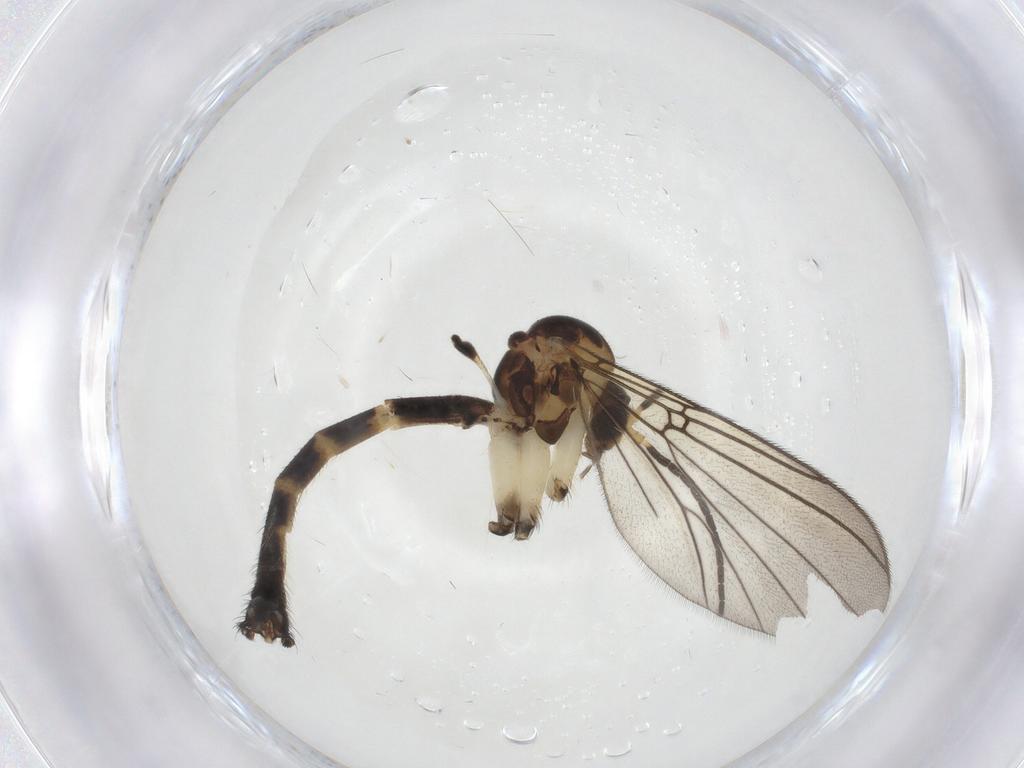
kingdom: Animalia
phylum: Arthropoda
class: Insecta
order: Diptera
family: Mycetophilidae
